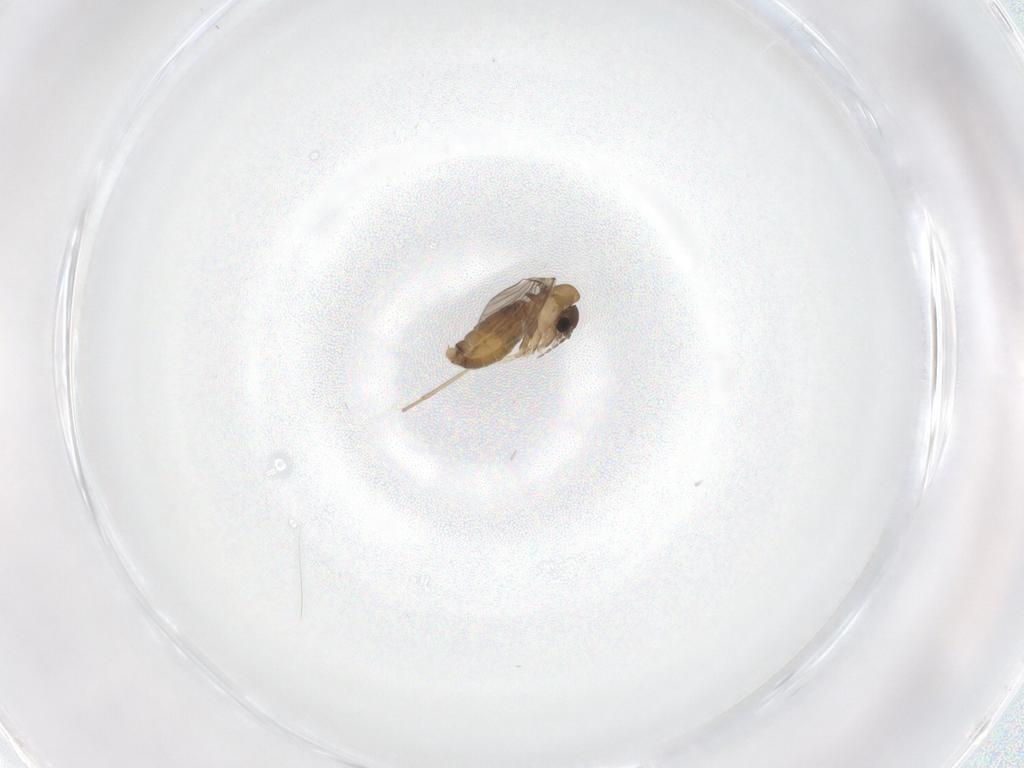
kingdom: Animalia
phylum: Arthropoda
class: Insecta
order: Diptera
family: Mycetophilidae
